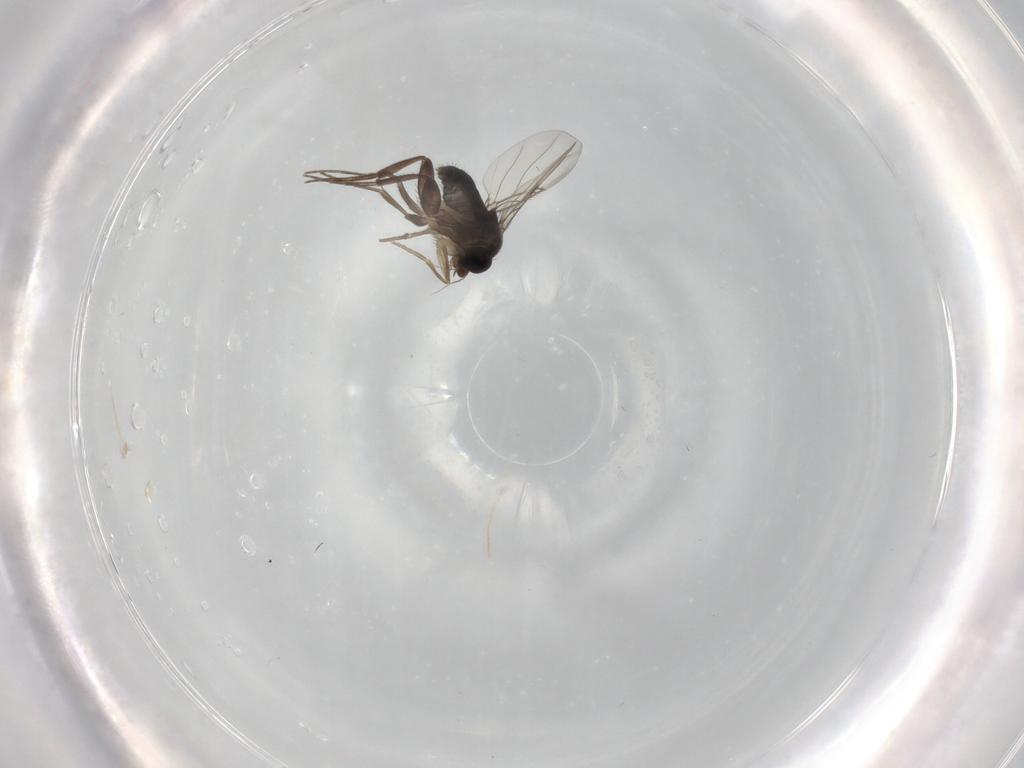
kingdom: Animalia
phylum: Arthropoda
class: Insecta
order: Diptera
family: Phoridae
